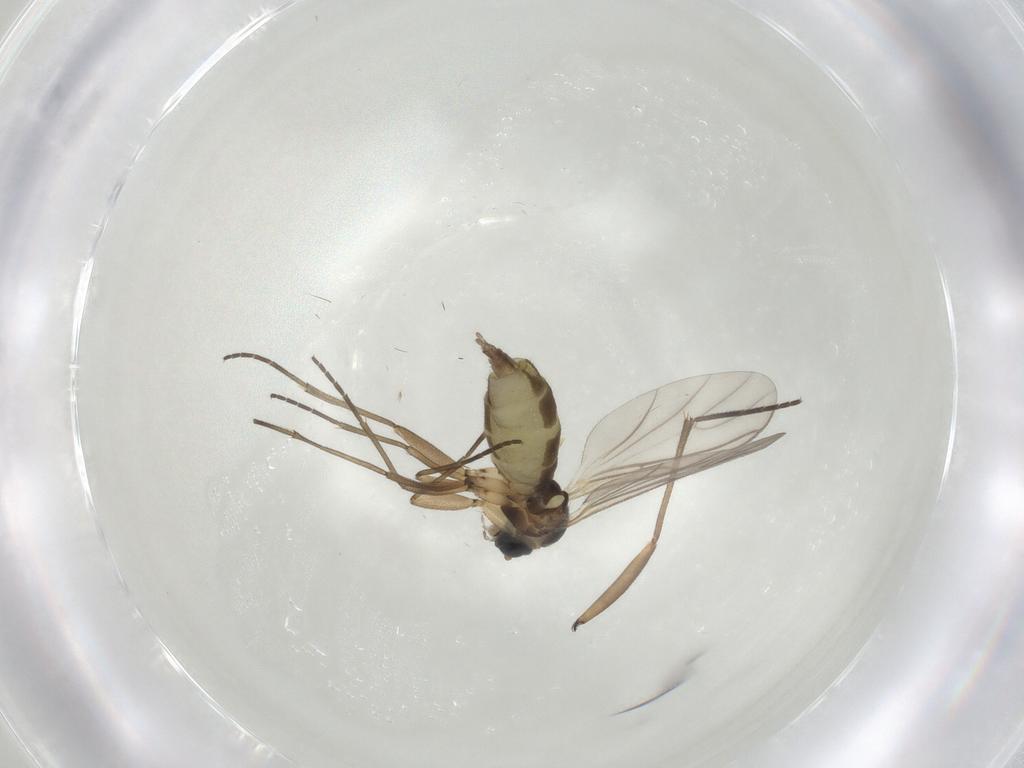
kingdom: Animalia
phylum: Arthropoda
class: Insecta
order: Diptera
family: Sciaridae
